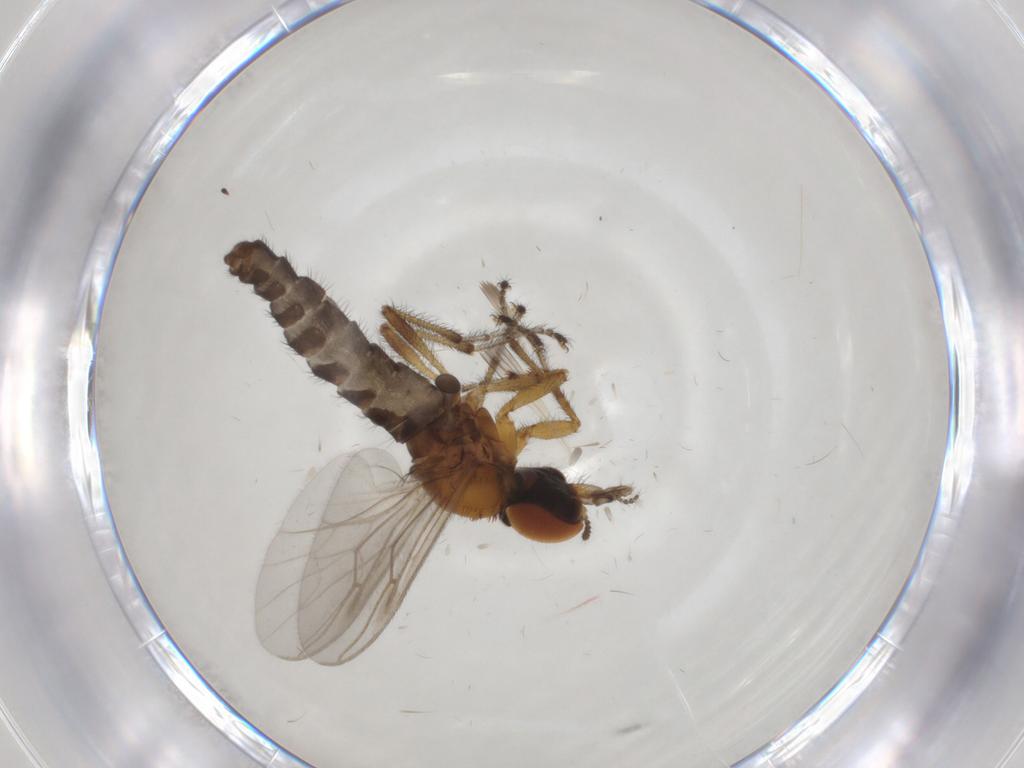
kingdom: Animalia
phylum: Arthropoda
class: Insecta
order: Diptera
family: Bibionidae
